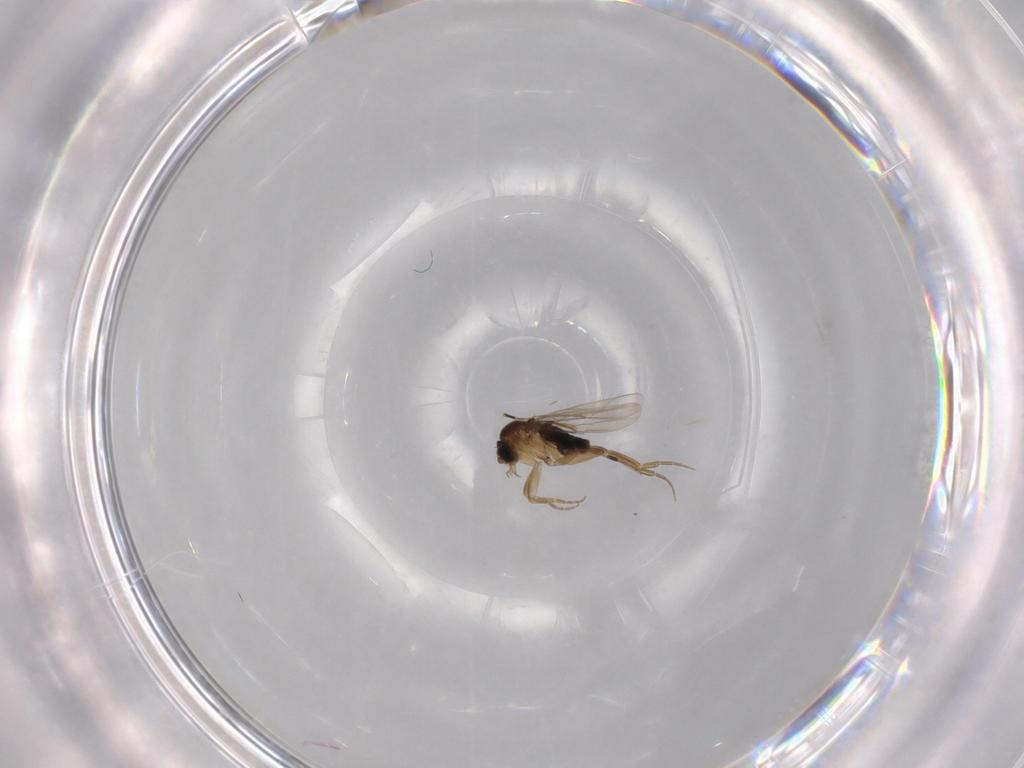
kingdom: Animalia
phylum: Arthropoda
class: Insecta
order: Diptera
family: Phoridae
